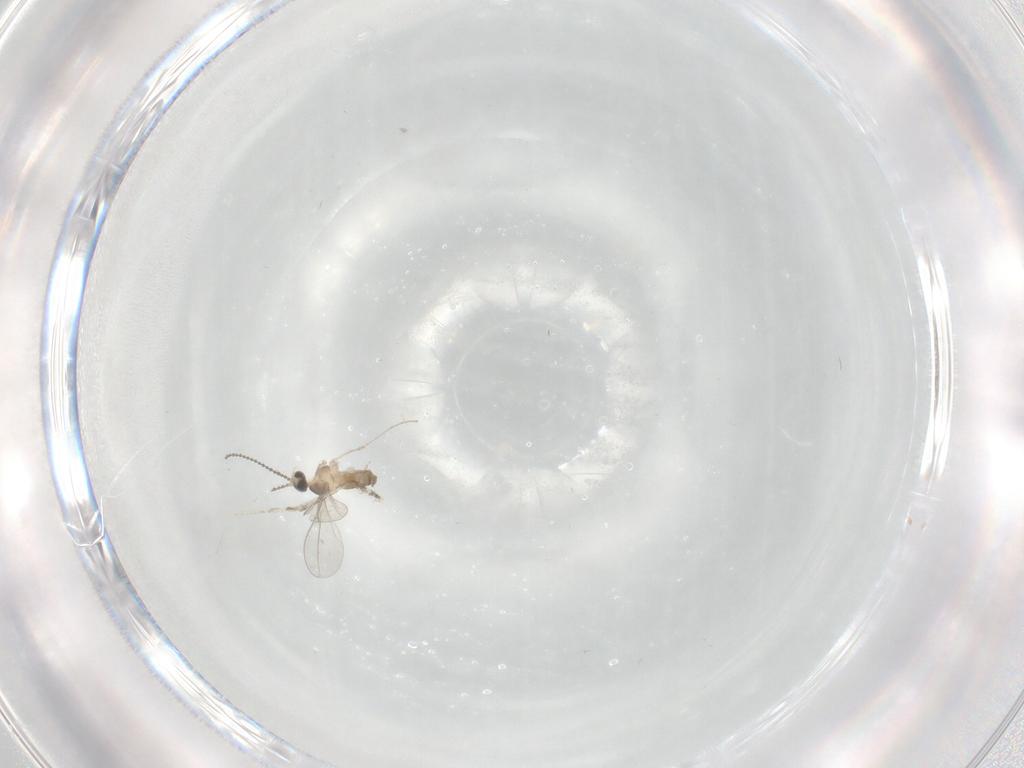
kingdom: Animalia
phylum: Arthropoda
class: Insecta
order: Diptera
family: Cecidomyiidae
